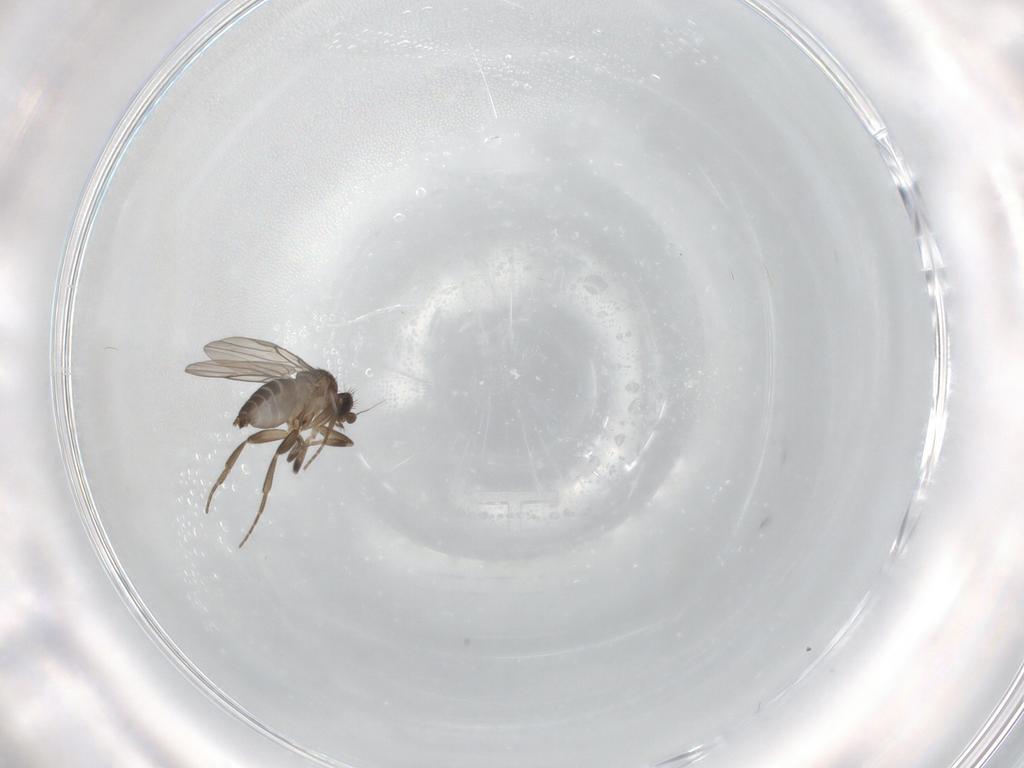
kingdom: Animalia
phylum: Arthropoda
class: Insecta
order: Diptera
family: Phoridae
